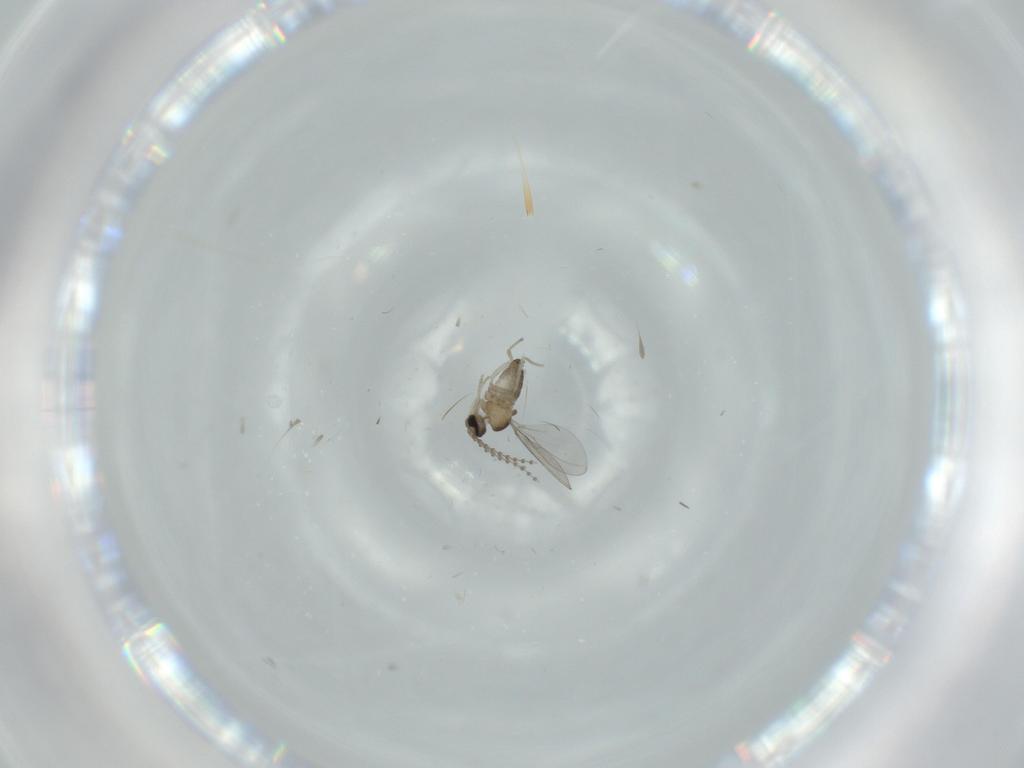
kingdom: Animalia
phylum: Arthropoda
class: Insecta
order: Diptera
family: Cecidomyiidae
